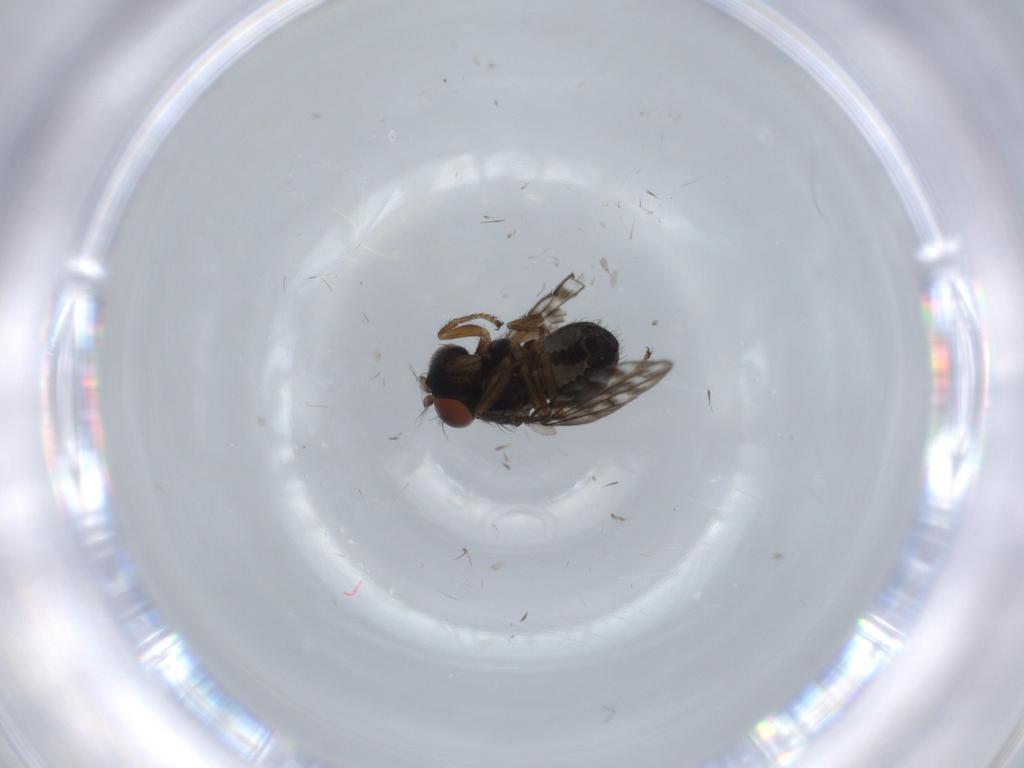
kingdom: Animalia
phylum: Arthropoda
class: Insecta
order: Diptera
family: Ephydridae
